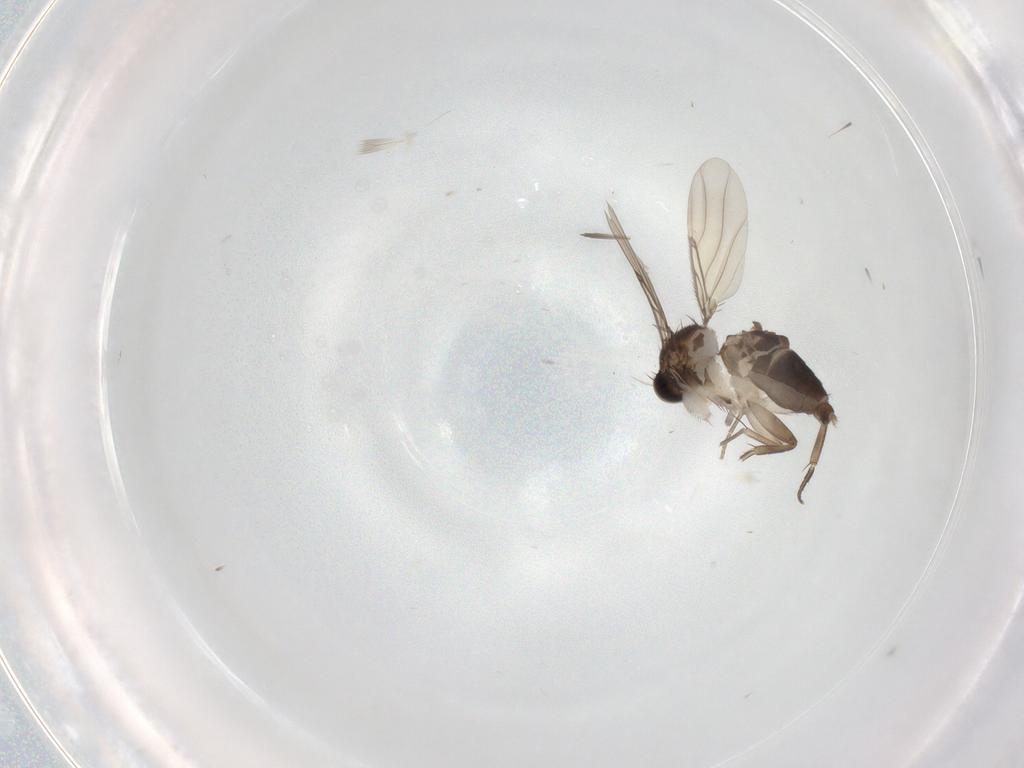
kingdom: Animalia
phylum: Arthropoda
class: Insecta
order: Diptera
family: Phoridae
